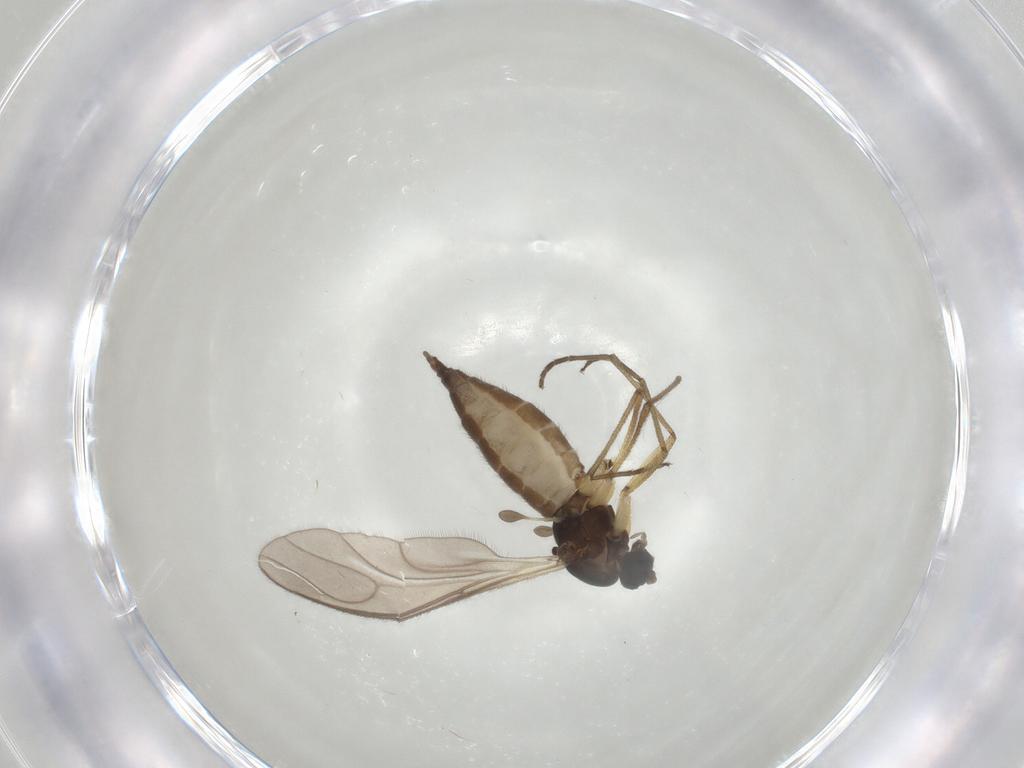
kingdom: Animalia
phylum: Arthropoda
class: Insecta
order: Diptera
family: Sciaridae
